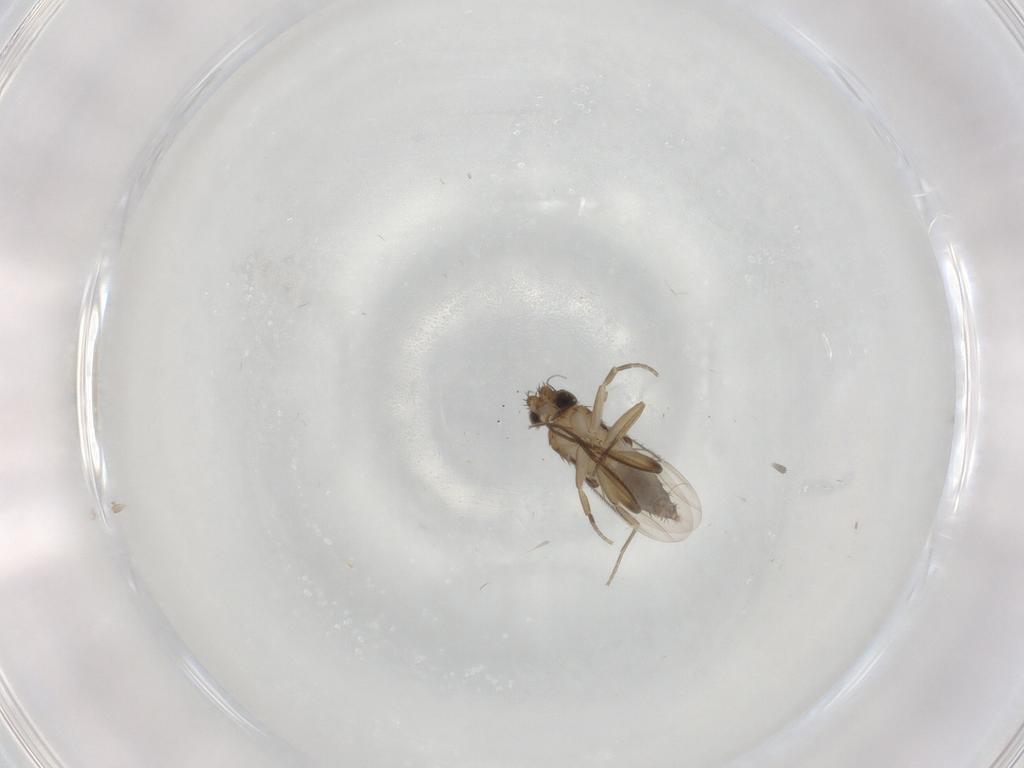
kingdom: Animalia
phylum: Arthropoda
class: Insecta
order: Diptera
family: Phoridae
